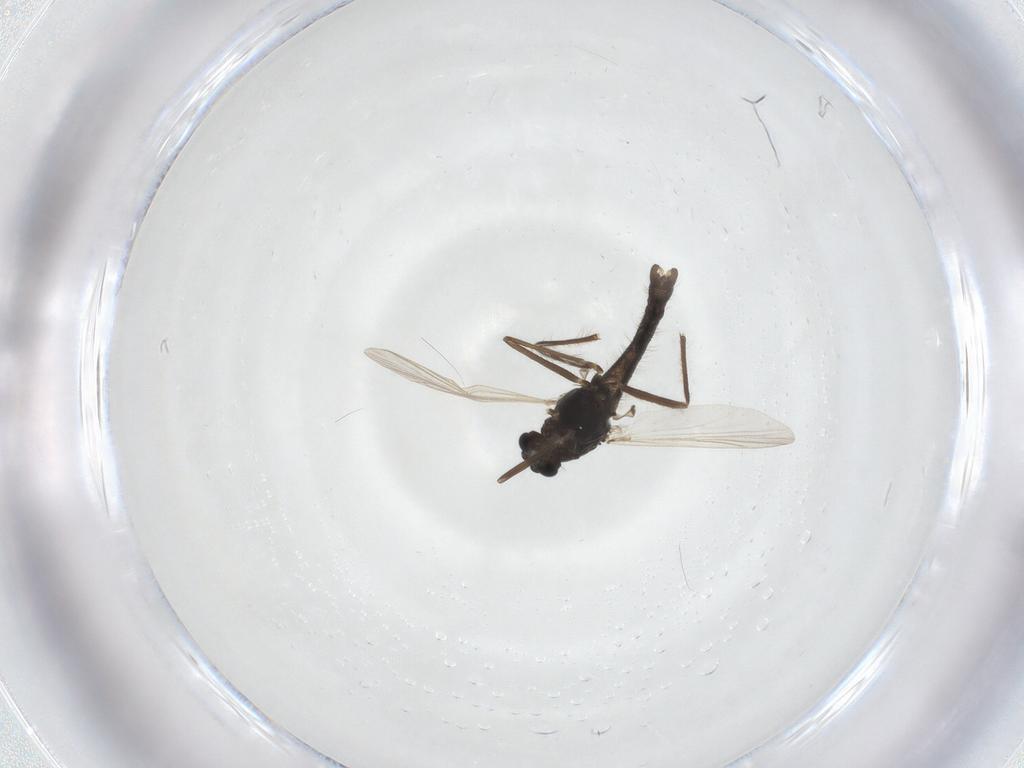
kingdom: Animalia
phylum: Arthropoda
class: Insecta
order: Diptera
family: Chironomidae
